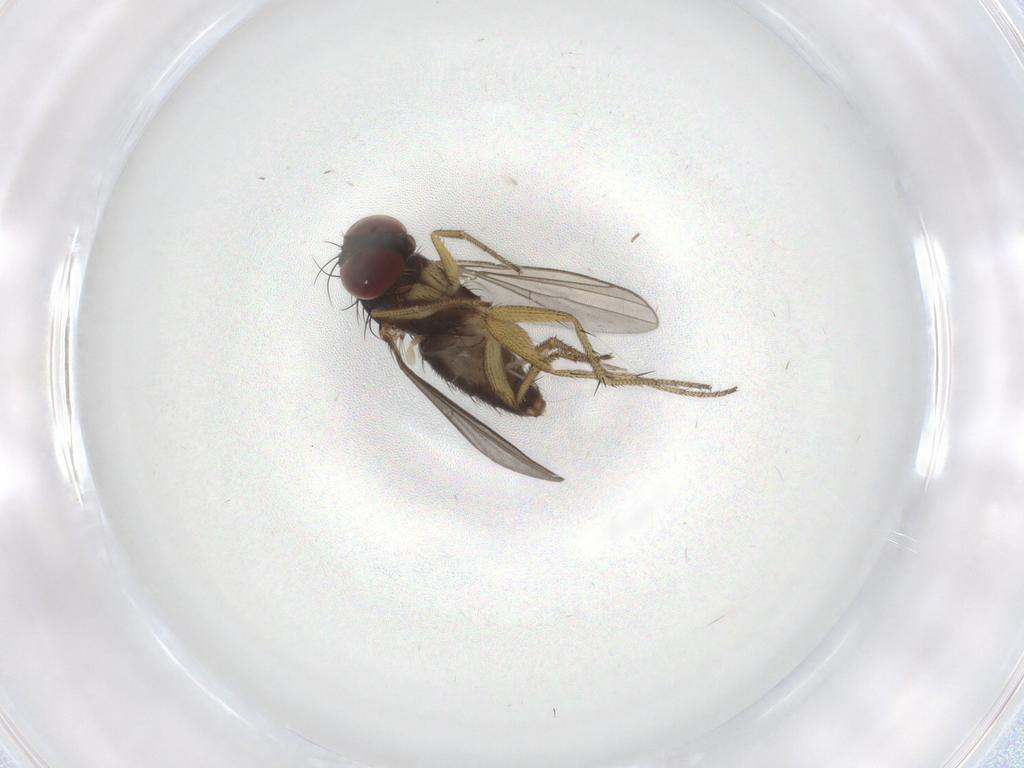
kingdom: Animalia
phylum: Arthropoda
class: Insecta
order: Diptera
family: Chironomidae
